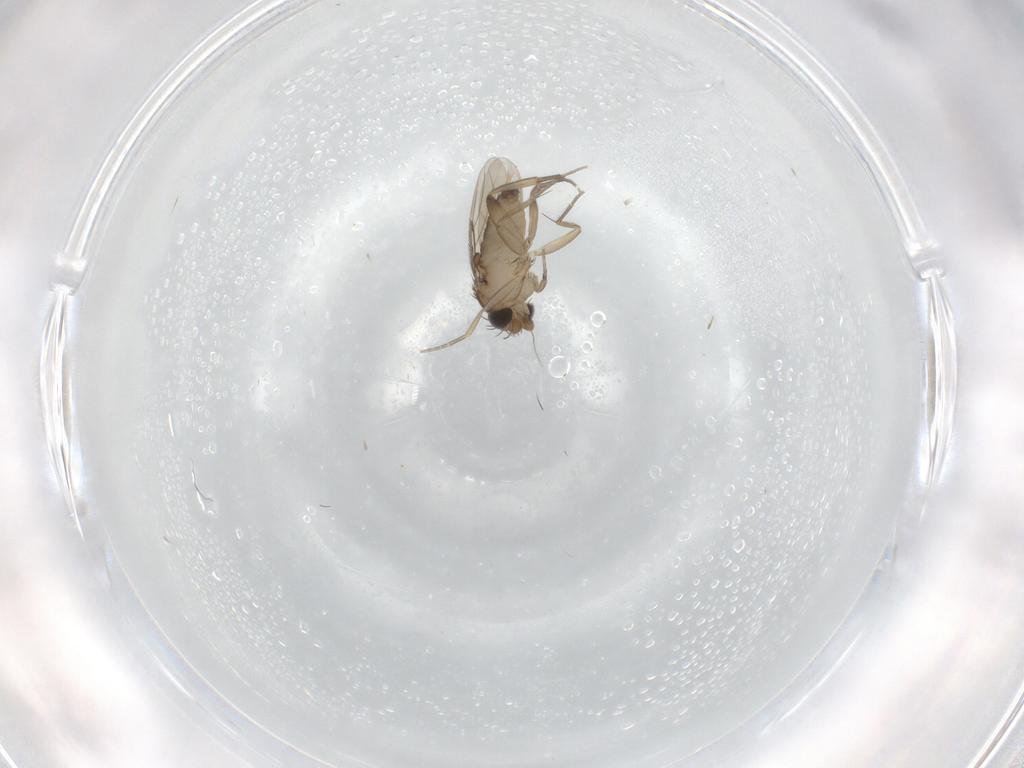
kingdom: Animalia
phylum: Arthropoda
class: Insecta
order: Diptera
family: Phoridae
